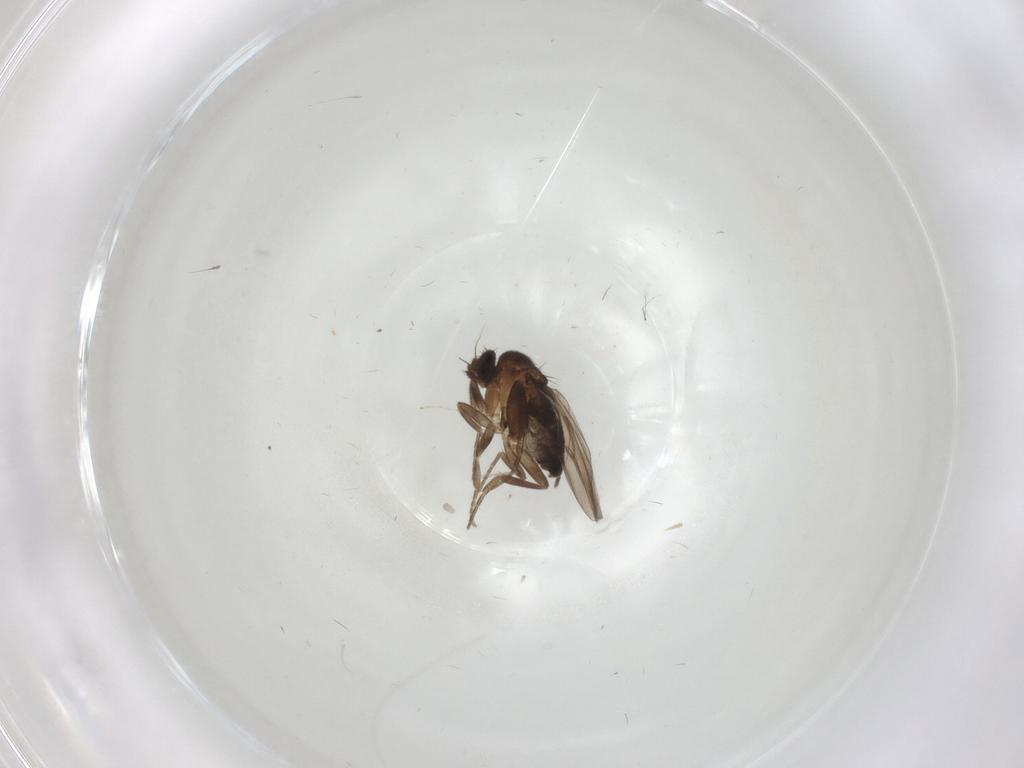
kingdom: Animalia
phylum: Arthropoda
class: Insecta
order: Diptera
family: Phoridae
